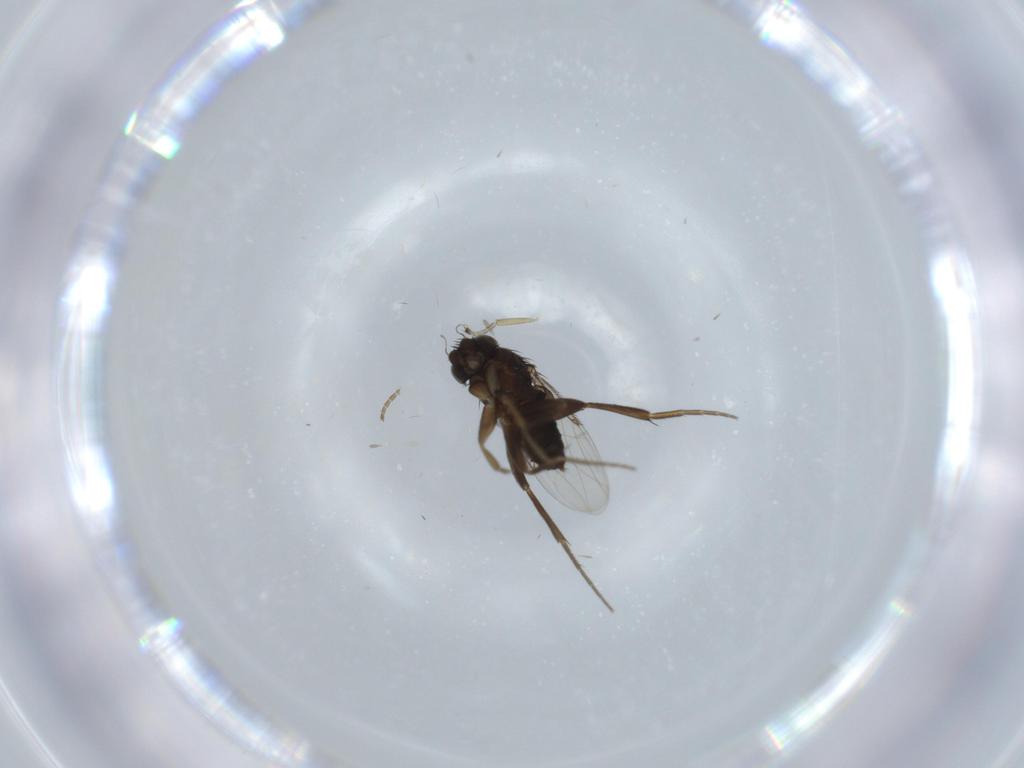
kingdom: Animalia
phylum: Arthropoda
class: Insecta
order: Diptera
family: Phoridae
